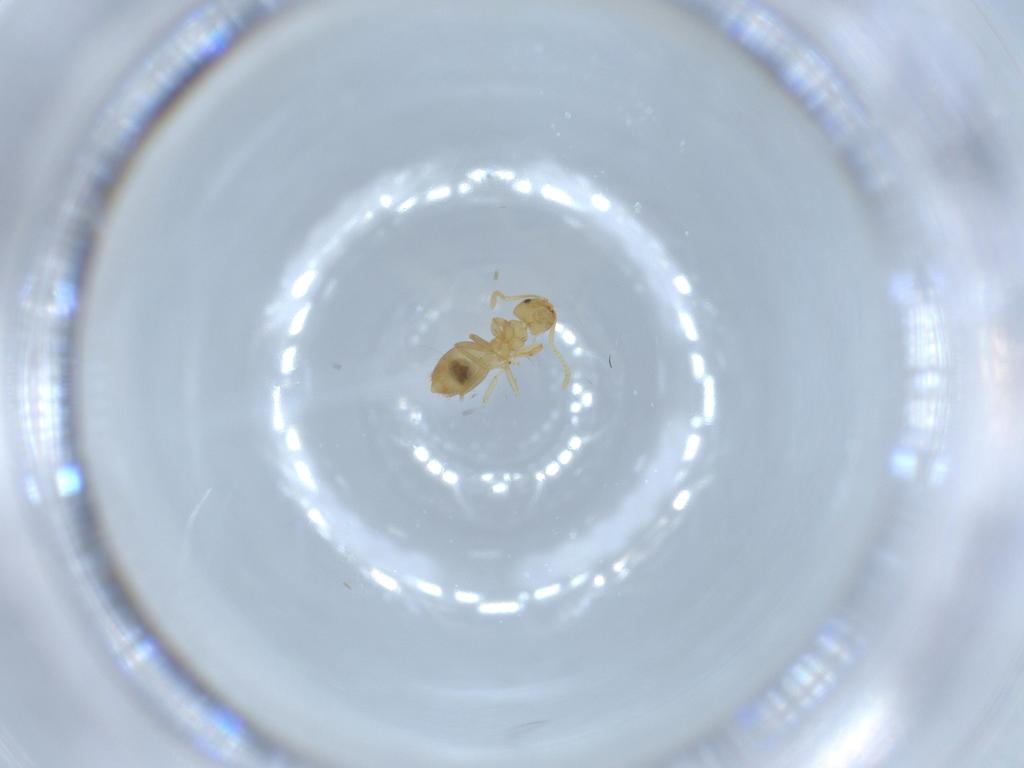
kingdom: Animalia
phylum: Arthropoda
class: Insecta
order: Hymenoptera
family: Formicidae
